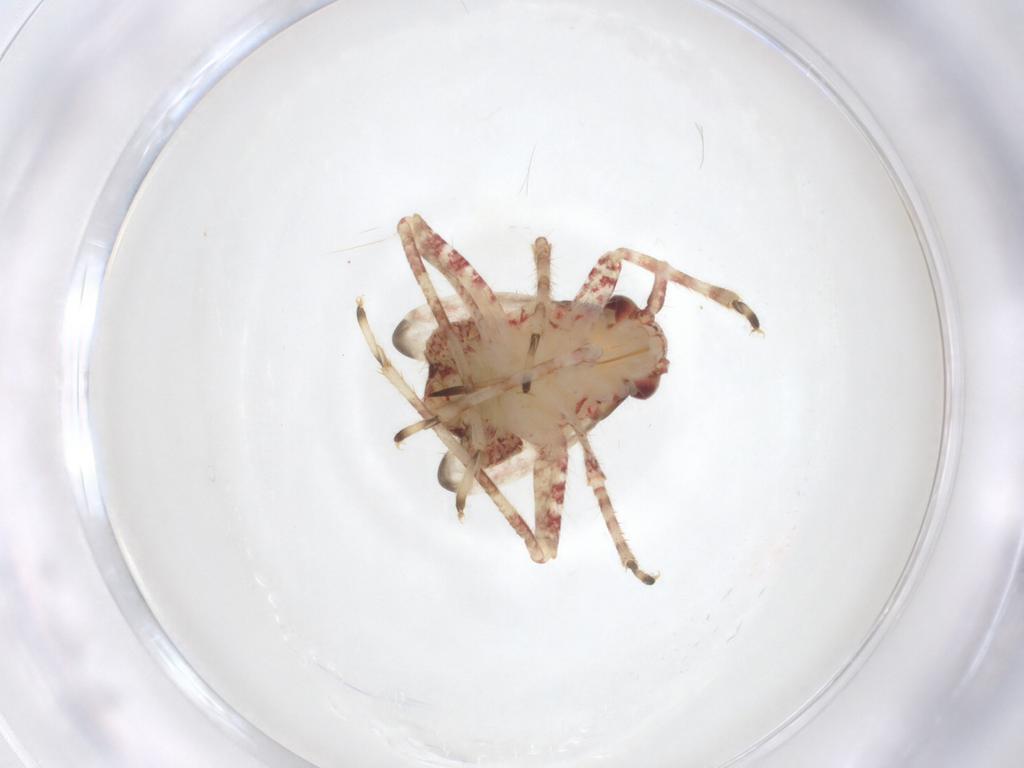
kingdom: Animalia
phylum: Arthropoda
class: Insecta
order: Hemiptera
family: Miridae
